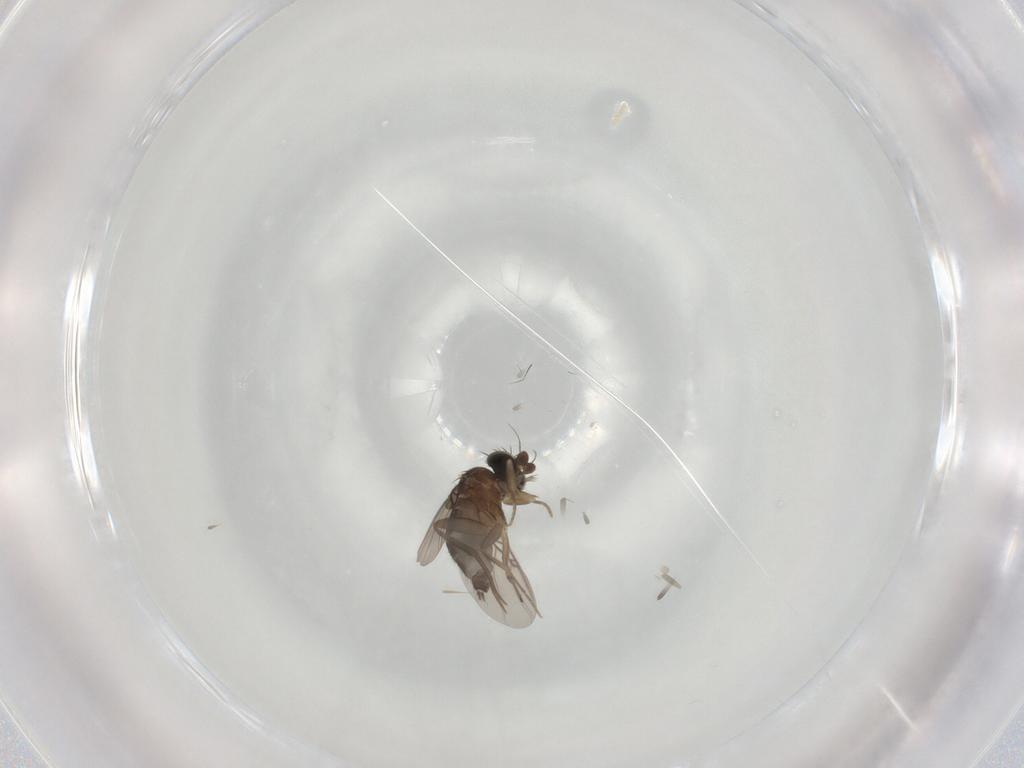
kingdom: Animalia
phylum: Arthropoda
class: Insecta
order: Diptera
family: Phoridae
